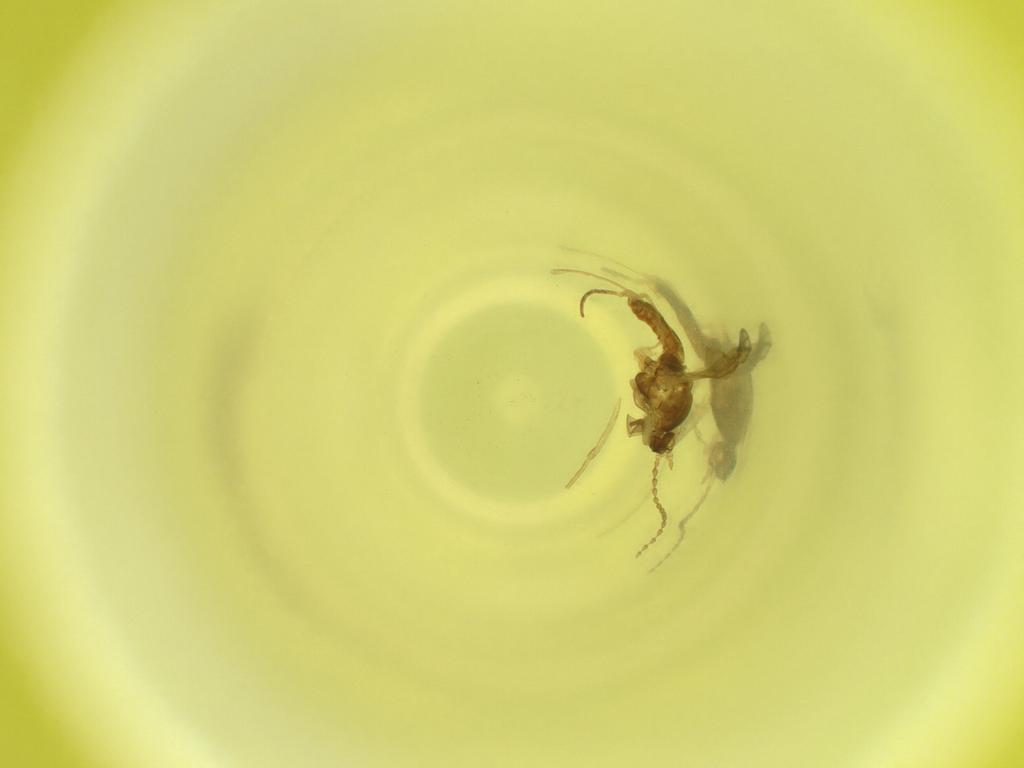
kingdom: Animalia
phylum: Arthropoda
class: Insecta
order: Diptera
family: Cecidomyiidae
